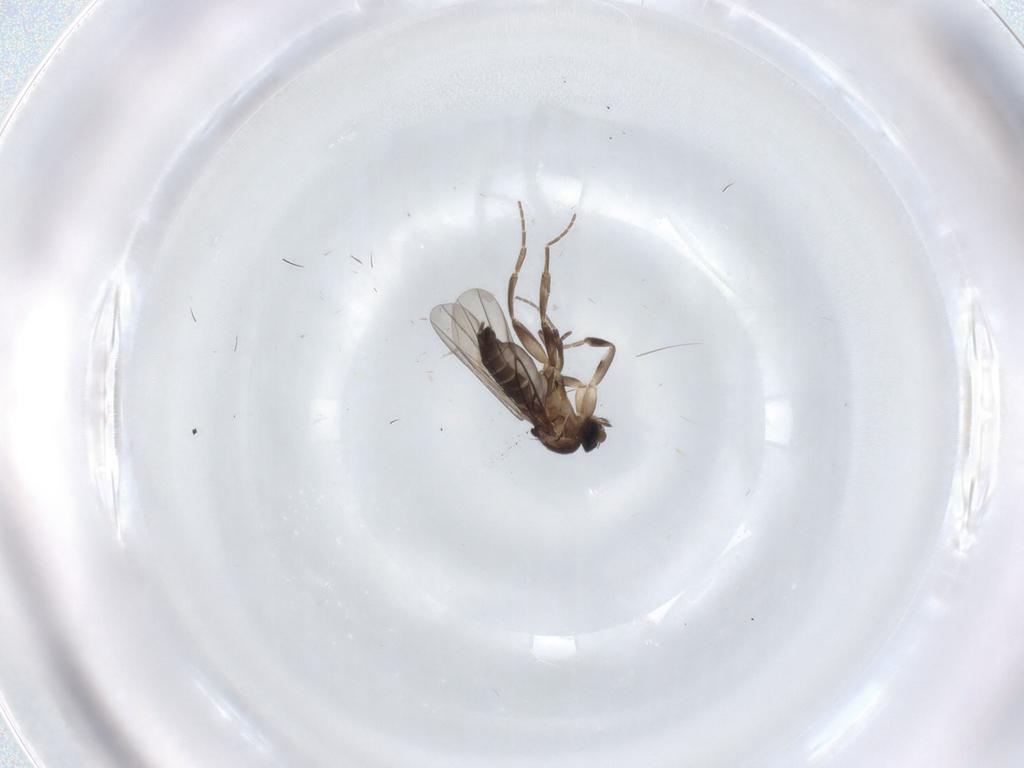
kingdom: Animalia
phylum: Arthropoda
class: Insecta
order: Diptera
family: Phoridae
